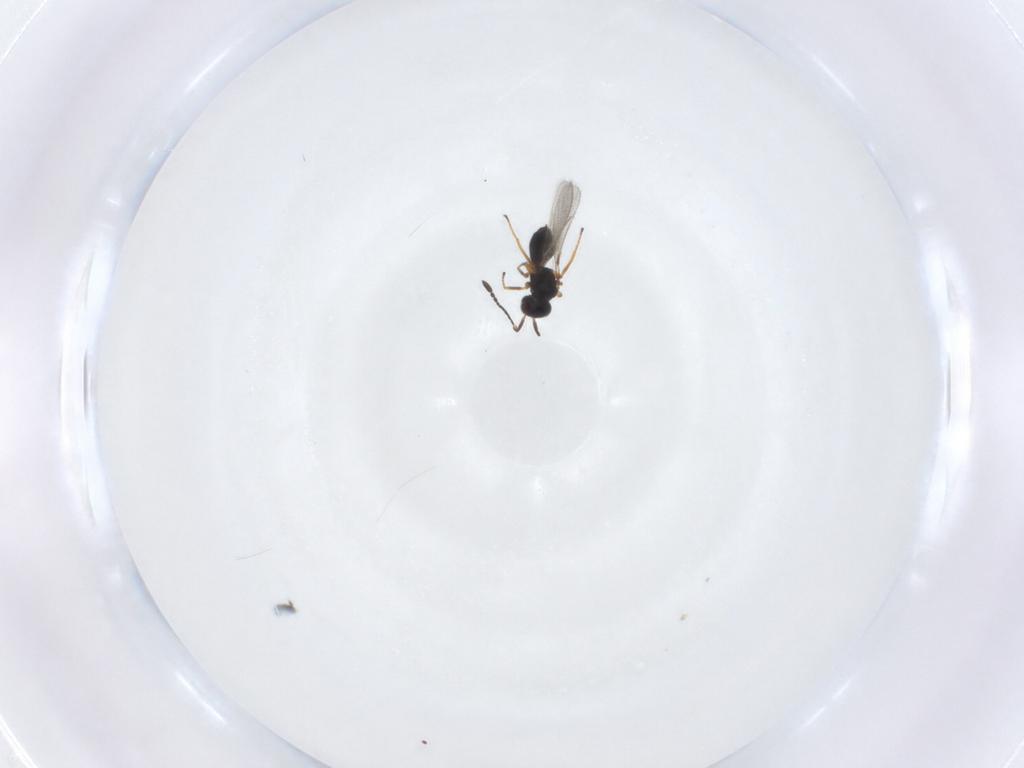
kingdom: Animalia
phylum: Arthropoda
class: Insecta
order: Hymenoptera
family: Mymaridae
